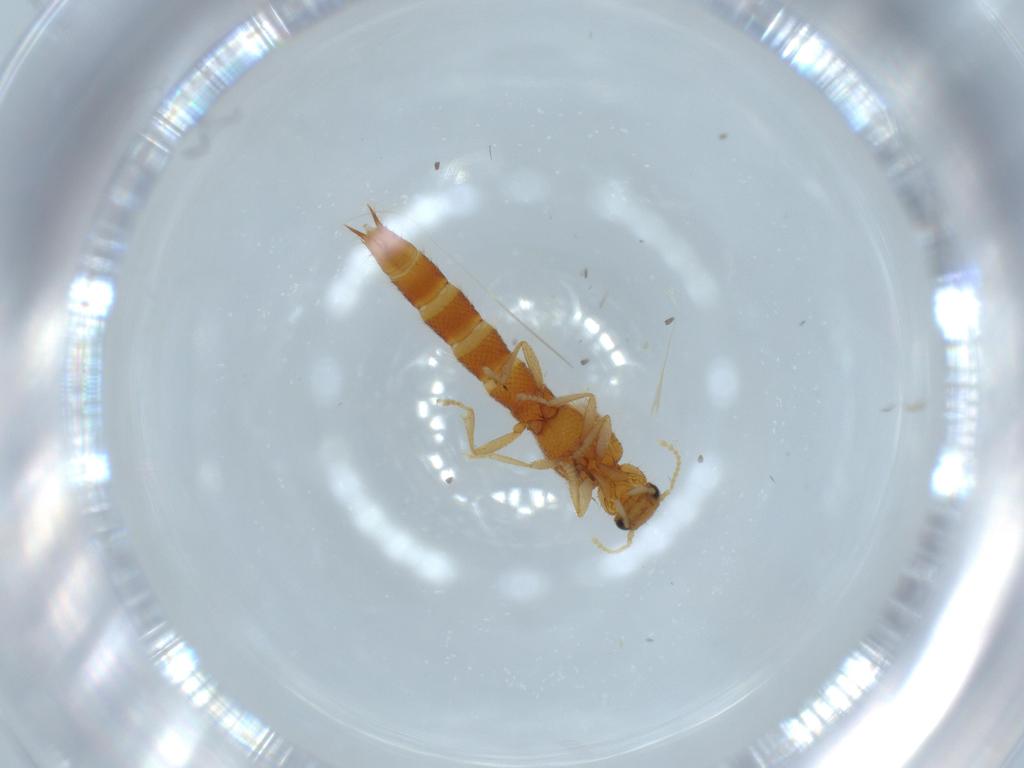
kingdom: Animalia
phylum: Arthropoda
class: Insecta
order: Coleoptera
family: Staphylinidae
